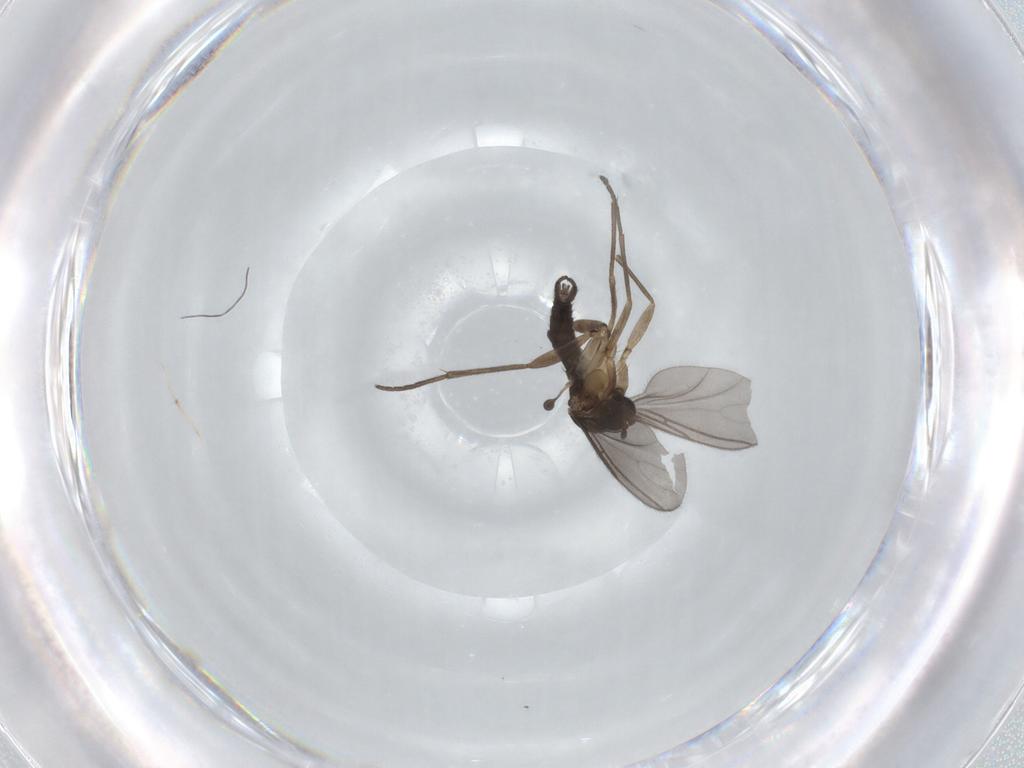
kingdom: Animalia
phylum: Arthropoda
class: Insecta
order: Diptera
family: Sciaridae
